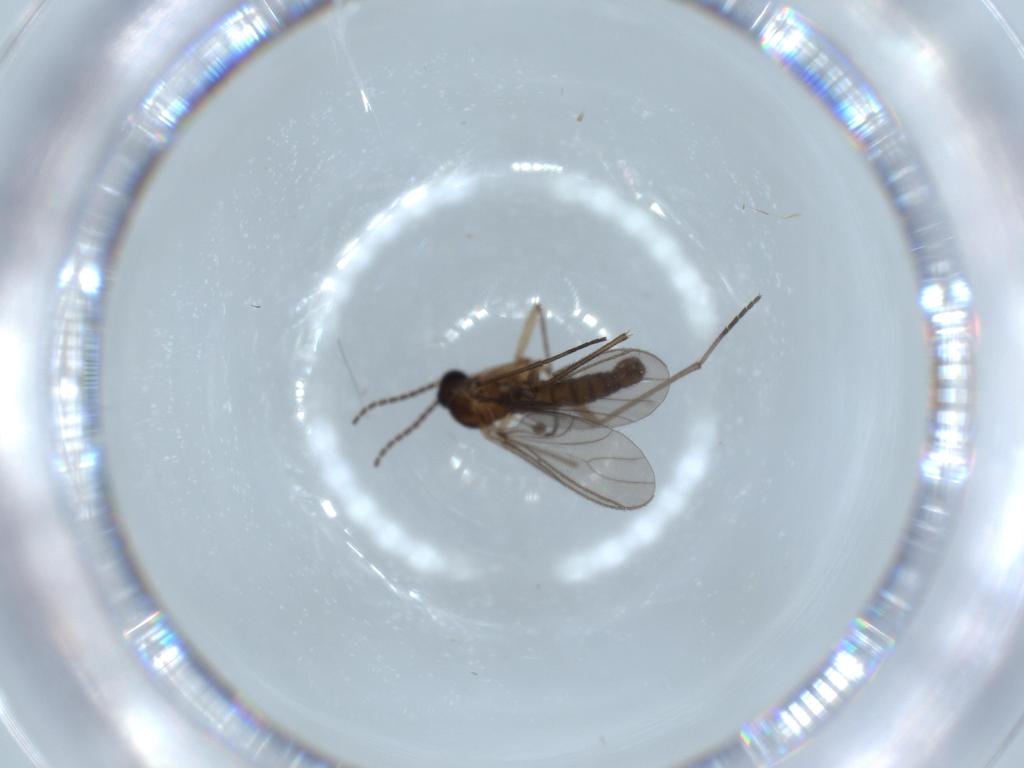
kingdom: Animalia
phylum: Arthropoda
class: Insecta
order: Diptera
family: Sciaridae
